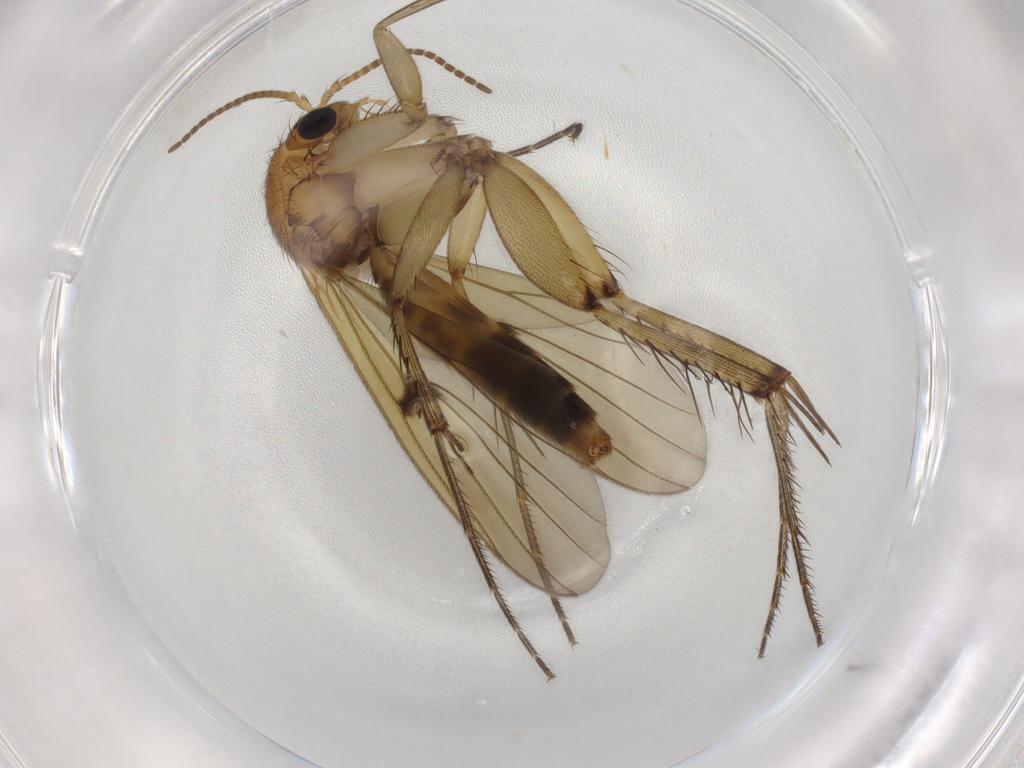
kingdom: Animalia
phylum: Arthropoda
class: Insecta
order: Diptera
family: Mycetophilidae
